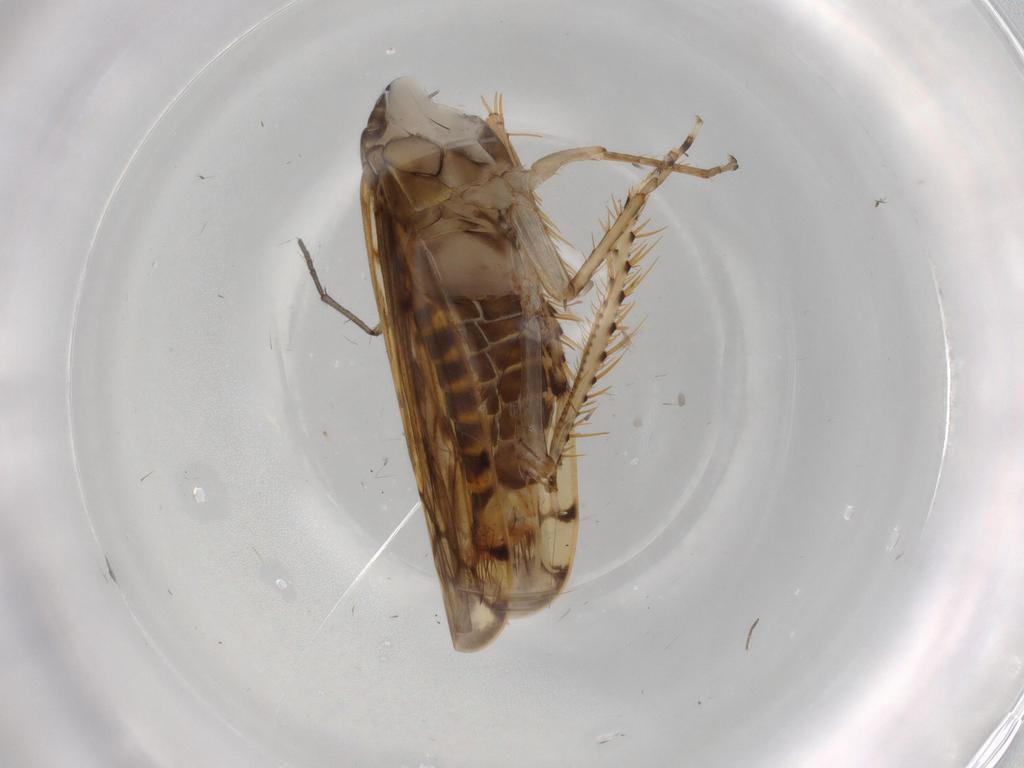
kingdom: Animalia
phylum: Arthropoda
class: Insecta
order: Hemiptera
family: Cicadellidae
